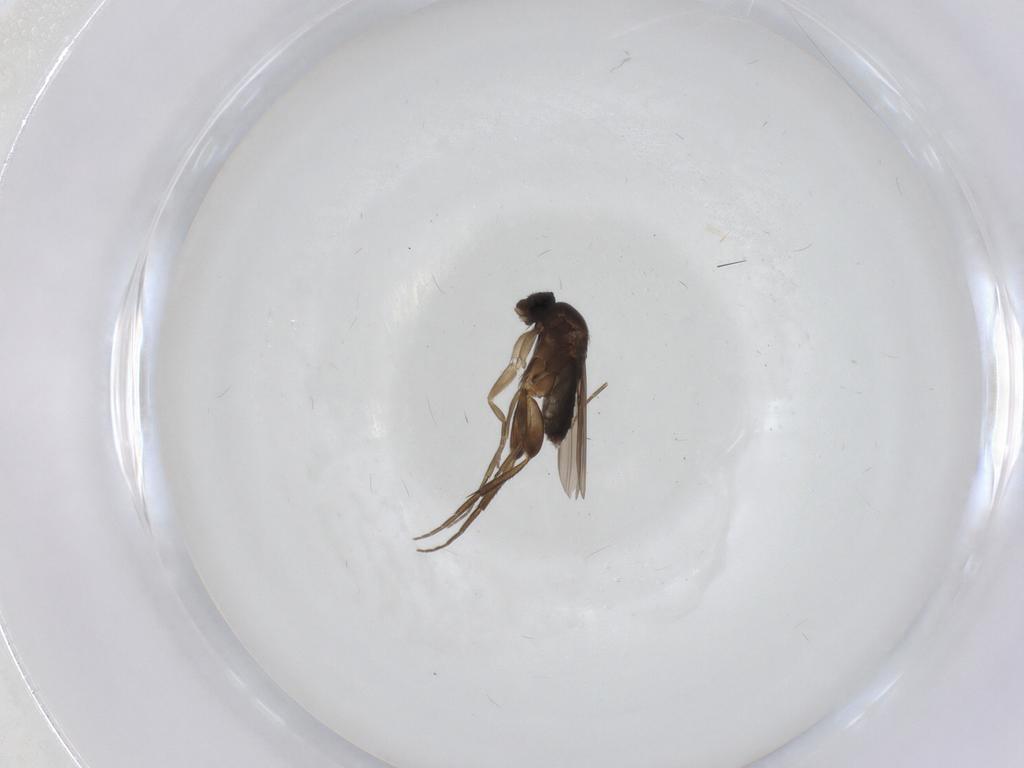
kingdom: Animalia
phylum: Arthropoda
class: Insecta
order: Diptera
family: Phoridae
